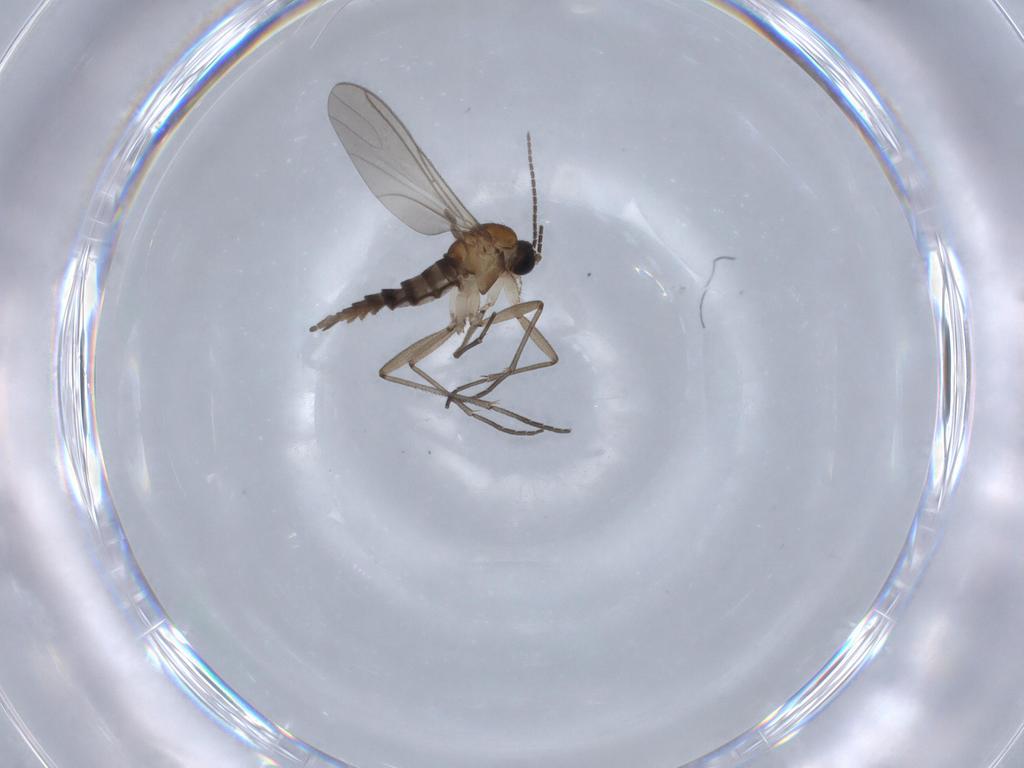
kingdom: Animalia
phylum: Arthropoda
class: Insecta
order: Diptera
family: Sciaridae
